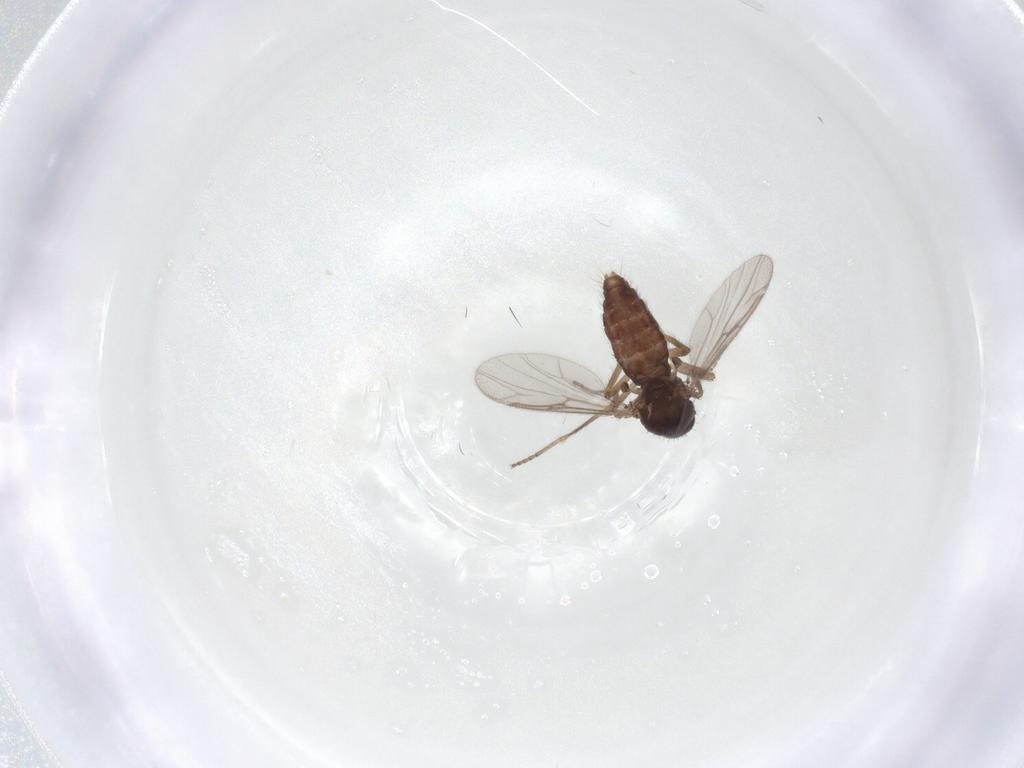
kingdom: Animalia
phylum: Arthropoda
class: Insecta
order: Diptera
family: Ceratopogonidae
